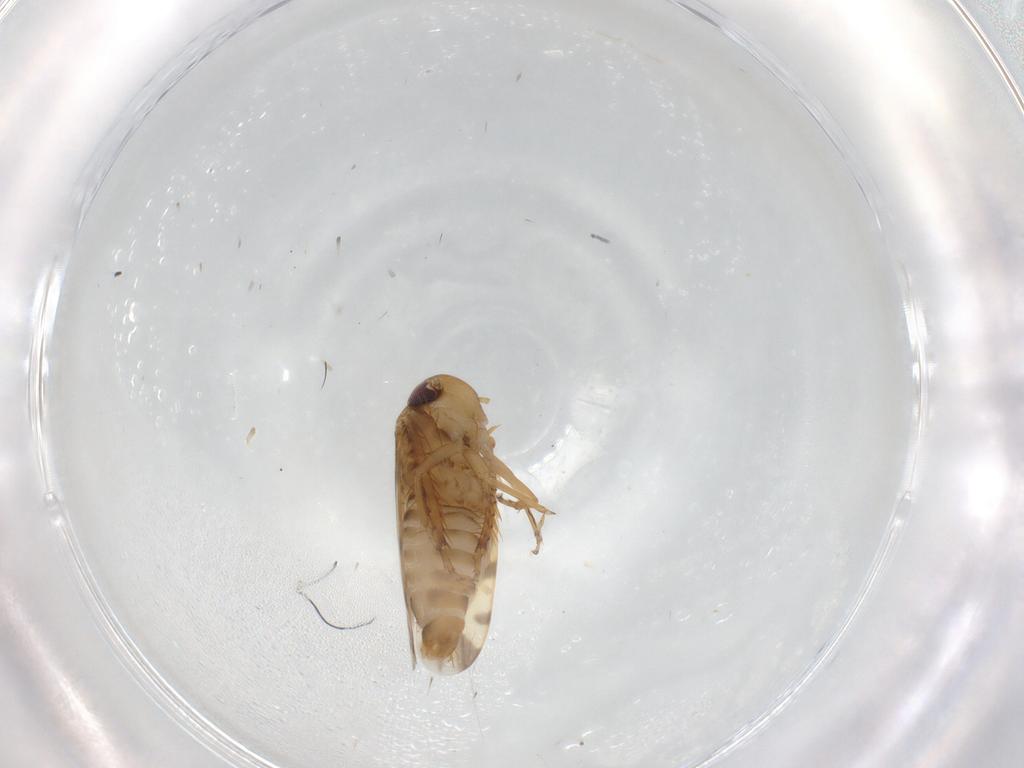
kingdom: Animalia
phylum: Arthropoda
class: Insecta
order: Hemiptera
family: Cicadellidae
